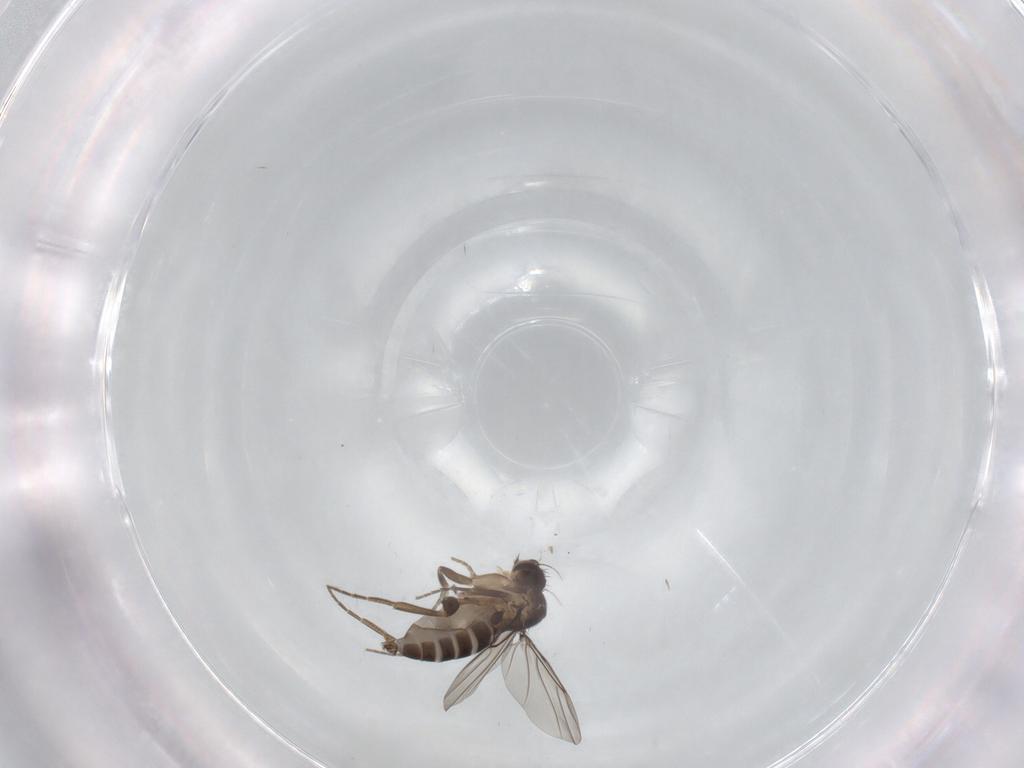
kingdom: Animalia
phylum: Arthropoda
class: Insecta
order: Diptera
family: Phoridae
